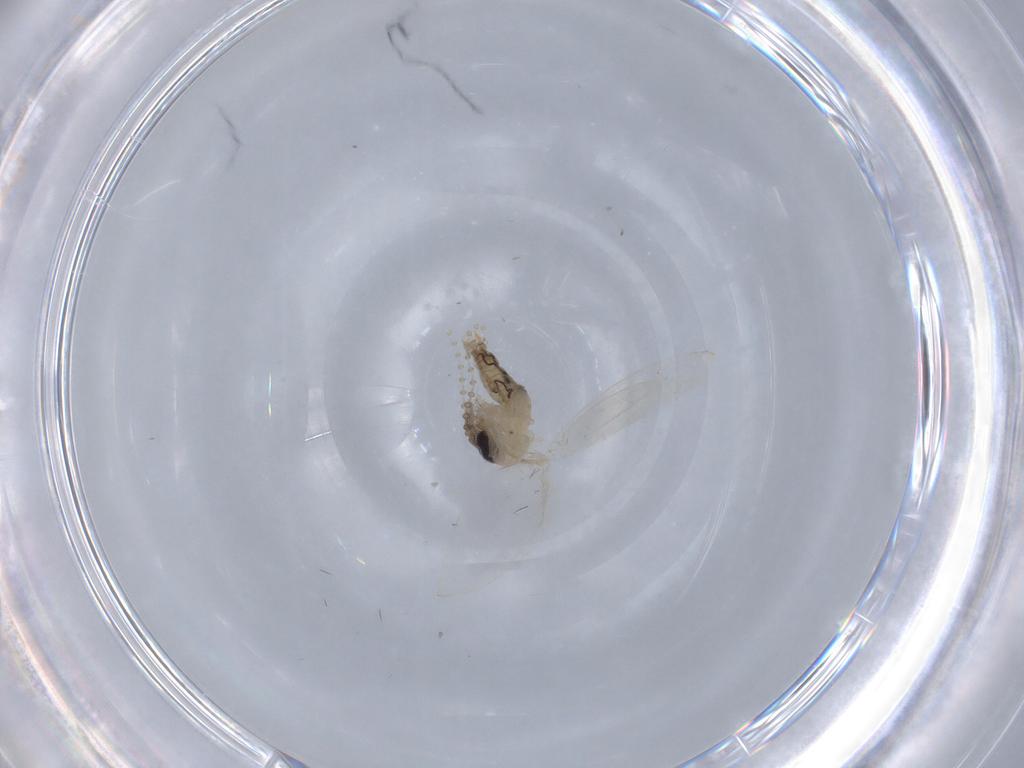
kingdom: Animalia
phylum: Arthropoda
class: Insecta
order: Diptera
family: Psychodidae
